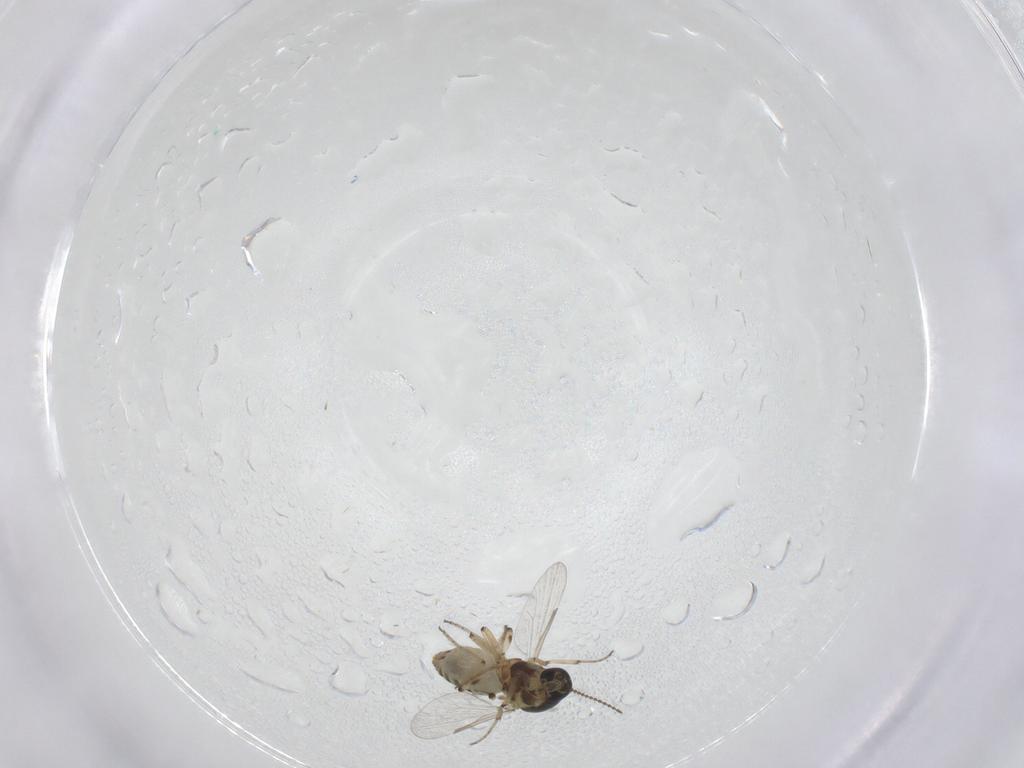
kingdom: Animalia
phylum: Arthropoda
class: Insecta
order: Diptera
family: Ceratopogonidae
